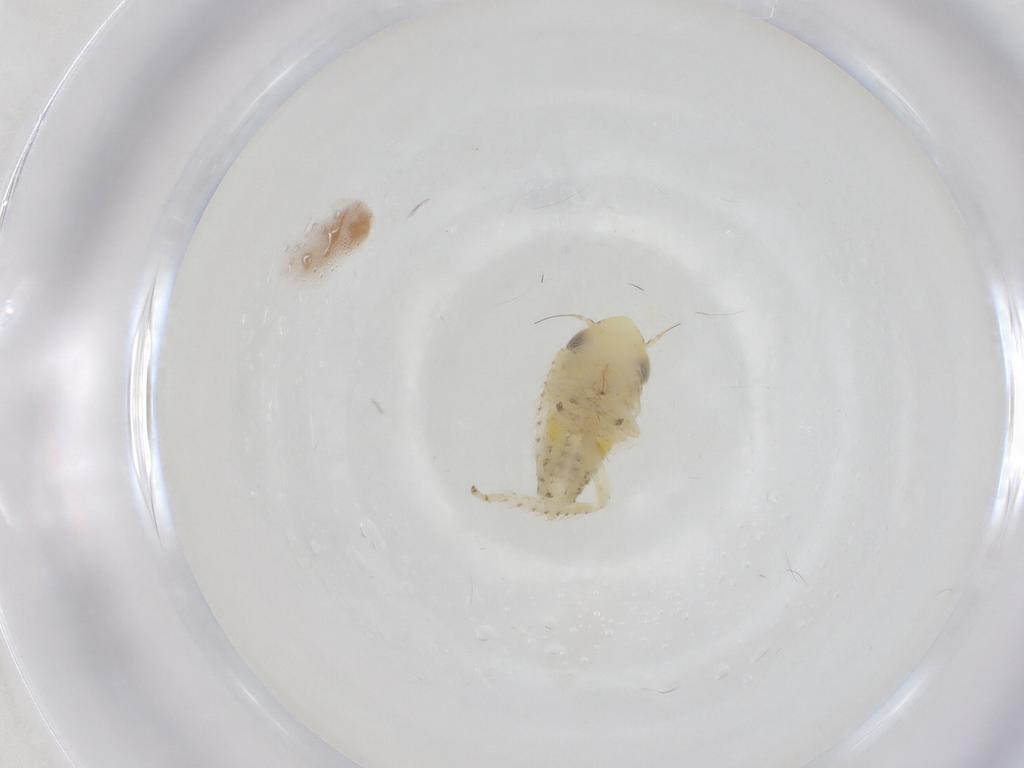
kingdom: Animalia
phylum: Arthropoda
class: Insecta
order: Hemiptera
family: Cicadellidae
